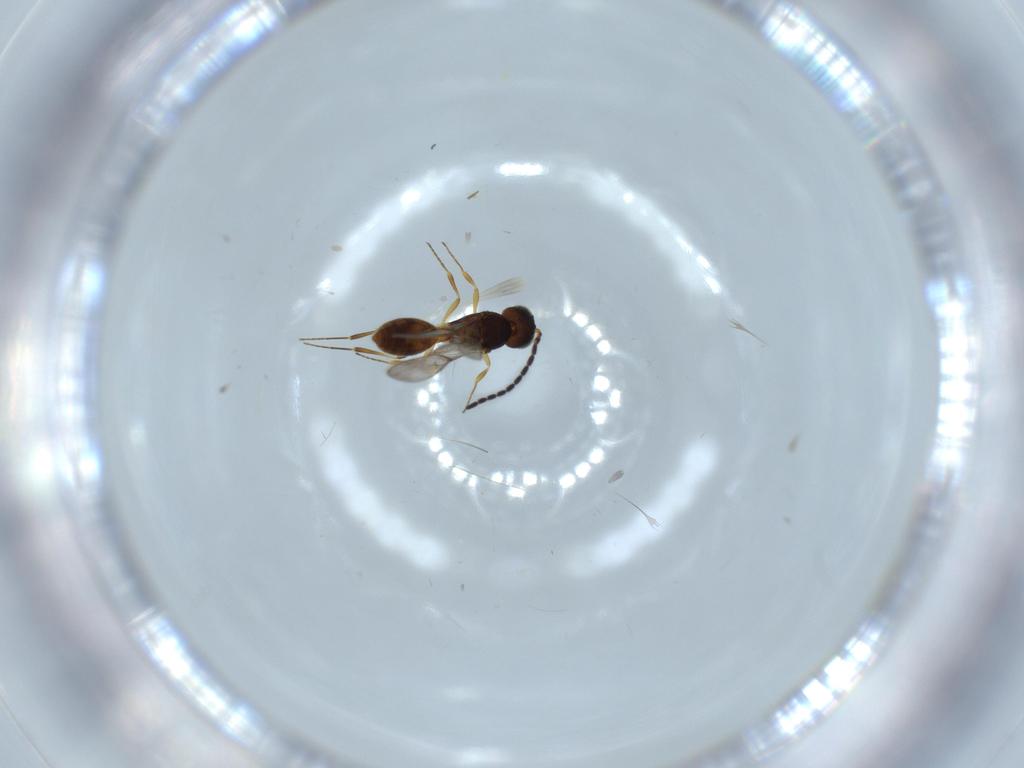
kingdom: Animalia
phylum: Arthropoda
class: Insecta
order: Hymenoptera
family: Scelionidae
